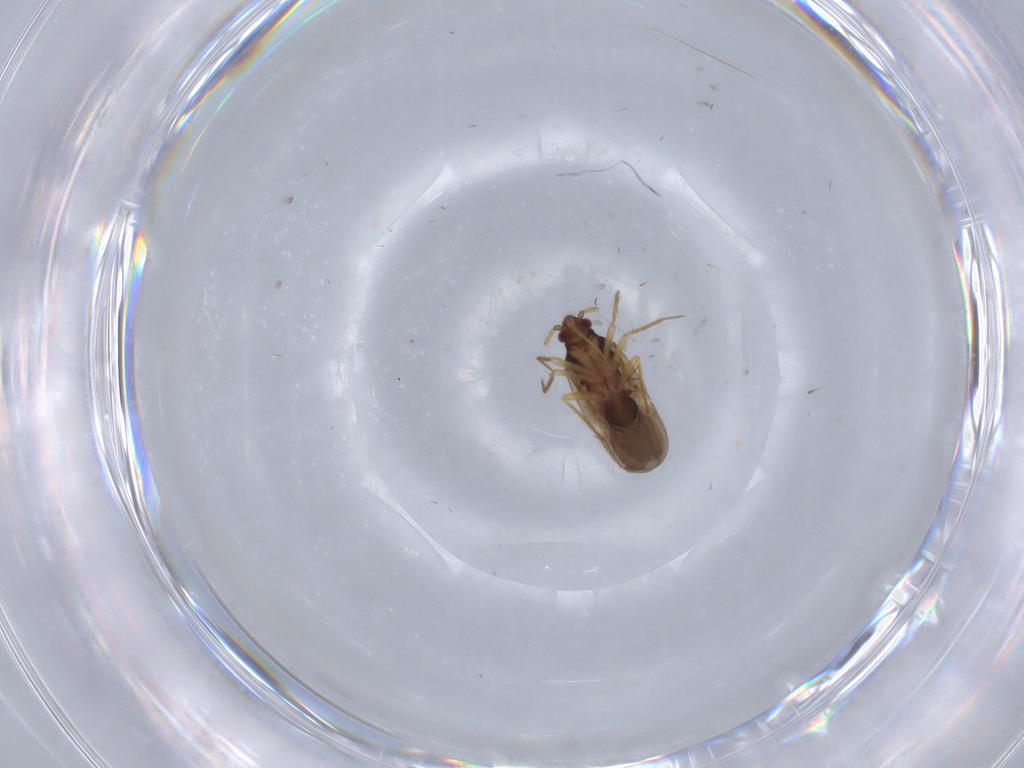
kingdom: Animalia
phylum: Arthropoda
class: Insecta
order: Hemiptera
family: Ceratocombidae
